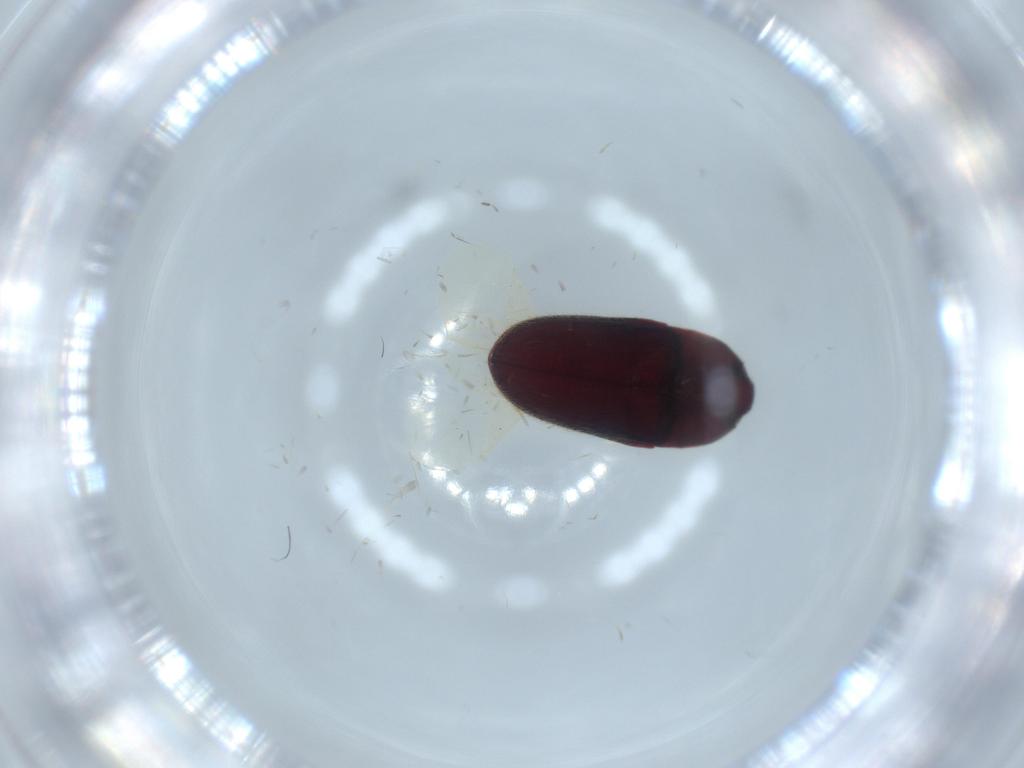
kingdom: Animalia
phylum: Arthropoda
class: Insecta
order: Coleoptera
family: Throscidae
